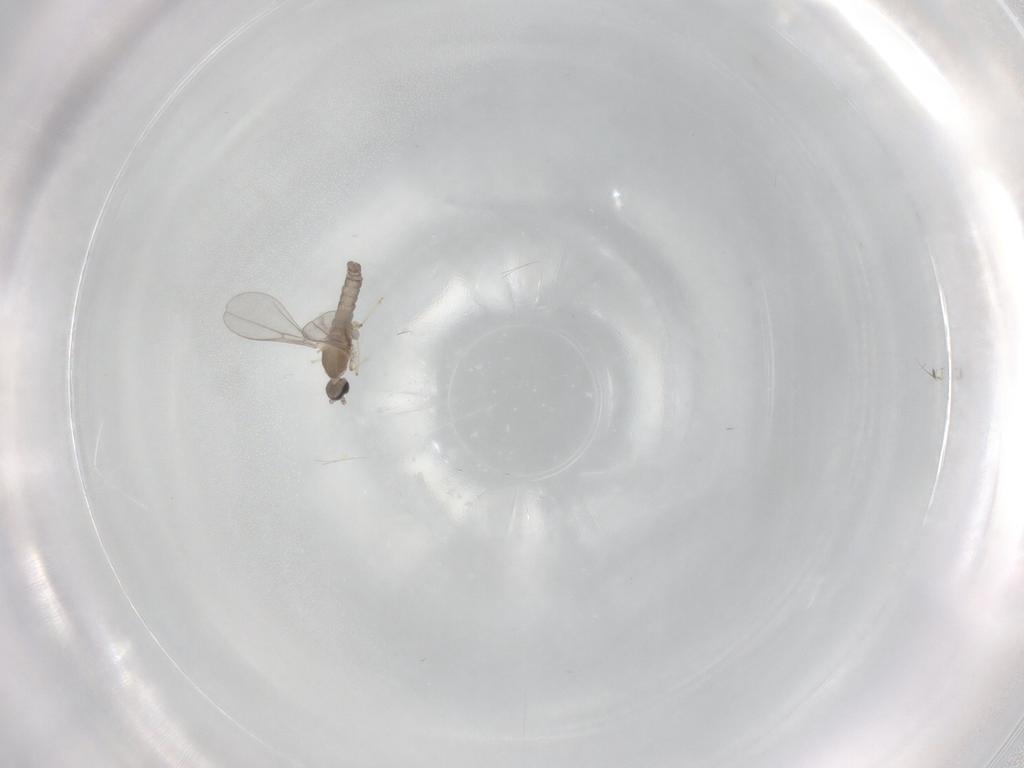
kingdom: Animalia
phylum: Arthropoda
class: Insecta
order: Diptera
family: Cecidomyiidae
